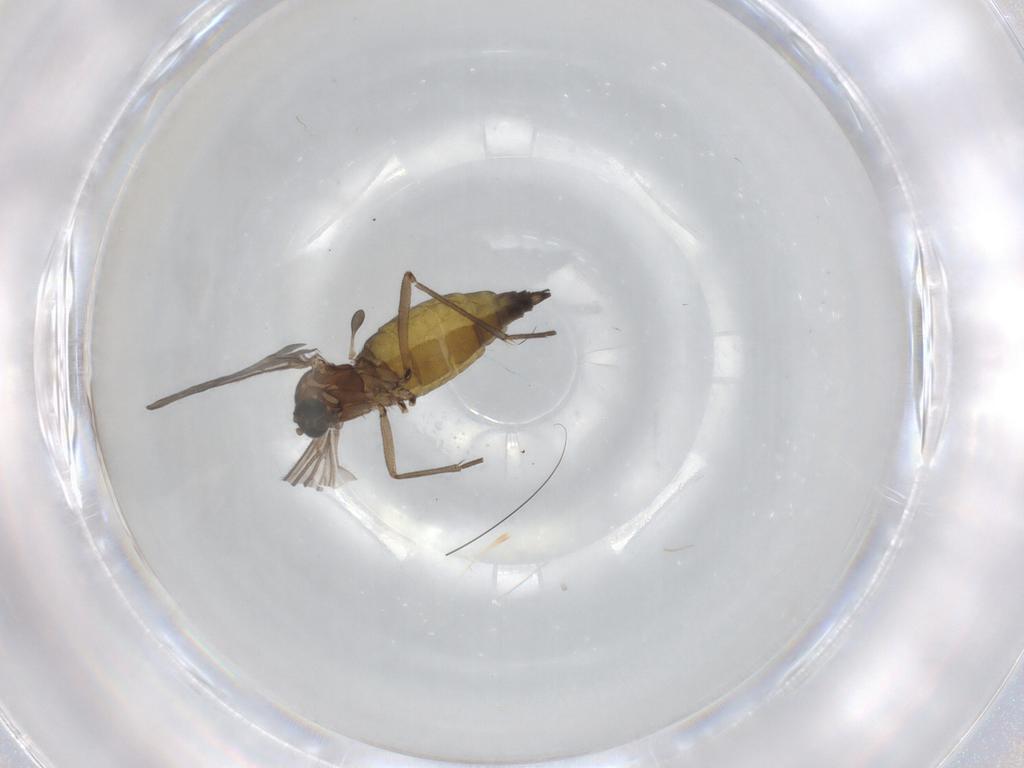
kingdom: Animalia
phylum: Arthropoda
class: Insecta
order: Diptera
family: Sciaridae
